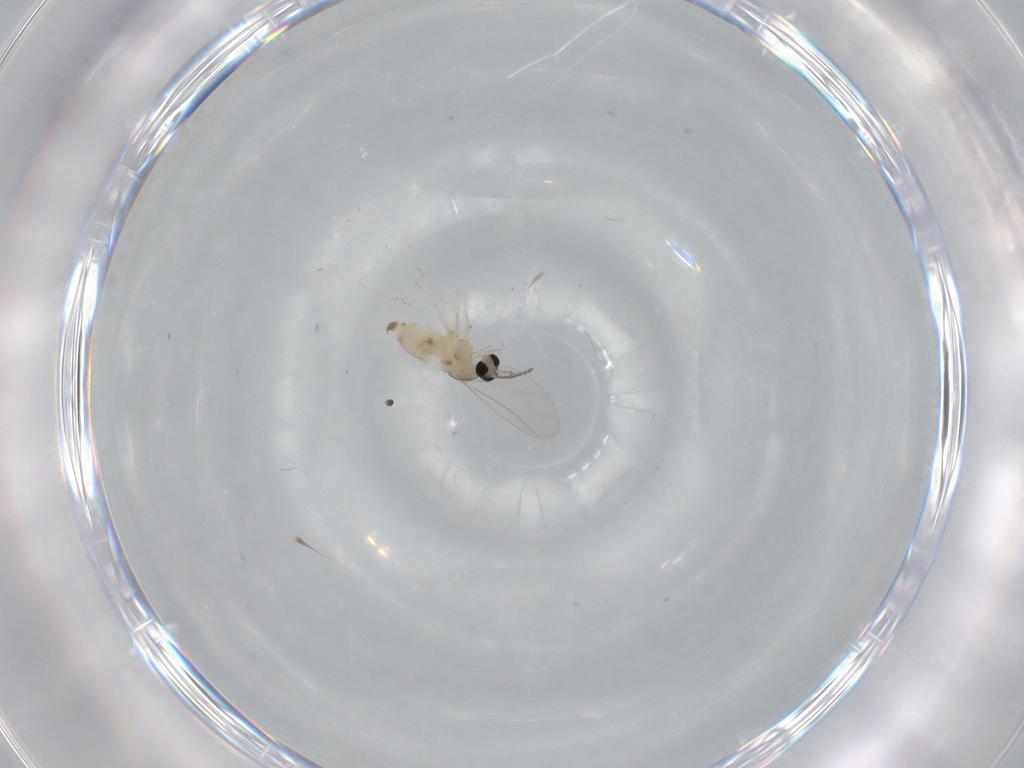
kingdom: Animalia
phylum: Arthropoda
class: Insecta
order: Diptera
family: Cecidomyiidae
